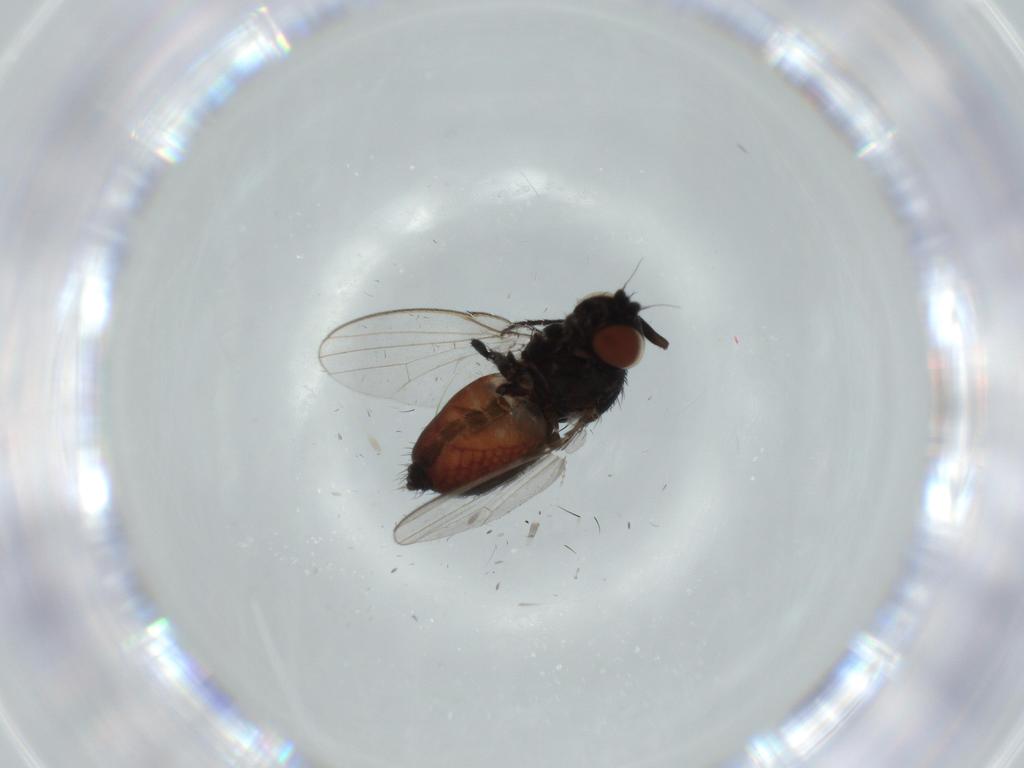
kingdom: Animalia
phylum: Arthropoda
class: Insecta
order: Diptera
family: Milichiidae
